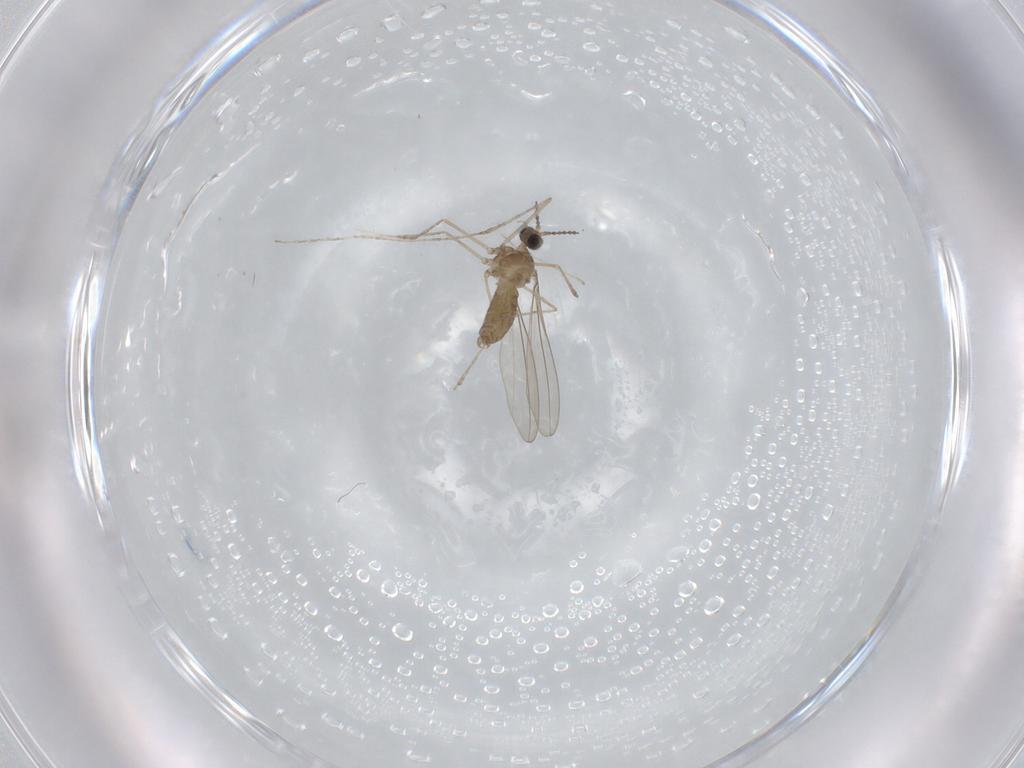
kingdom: Animalia
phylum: Arthropoda
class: Insecta
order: Diptera
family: Cecidomyiidae
